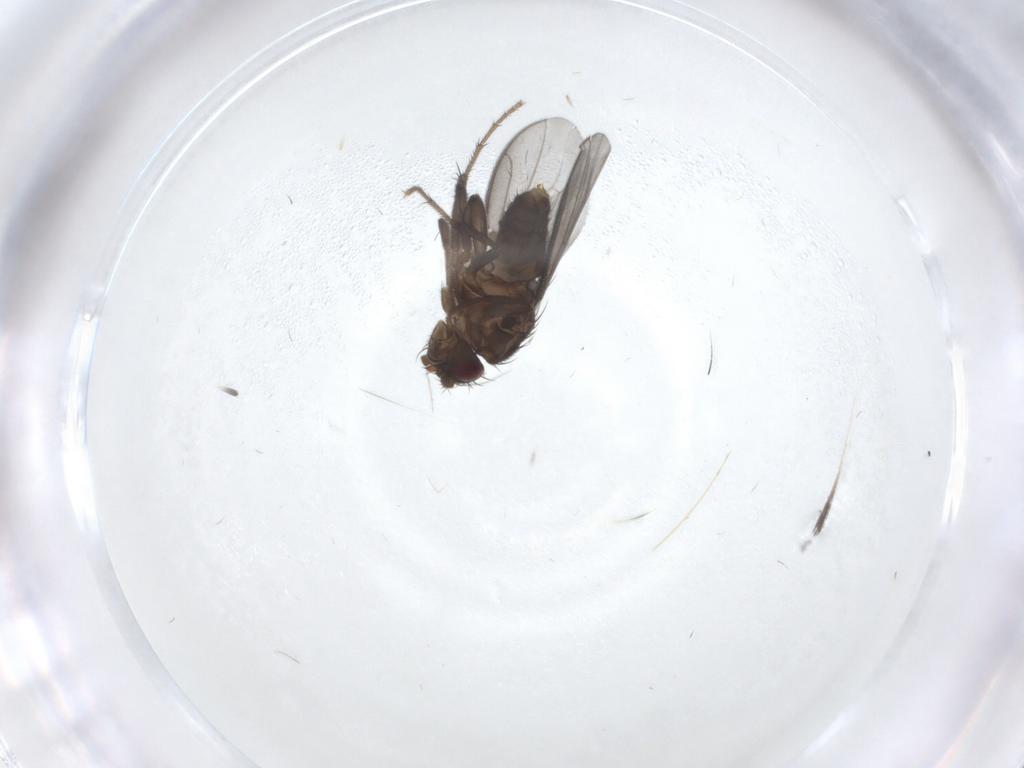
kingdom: Animalia
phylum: Arthropoda
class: Insecta
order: Diptera
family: Sphaeroceridae
